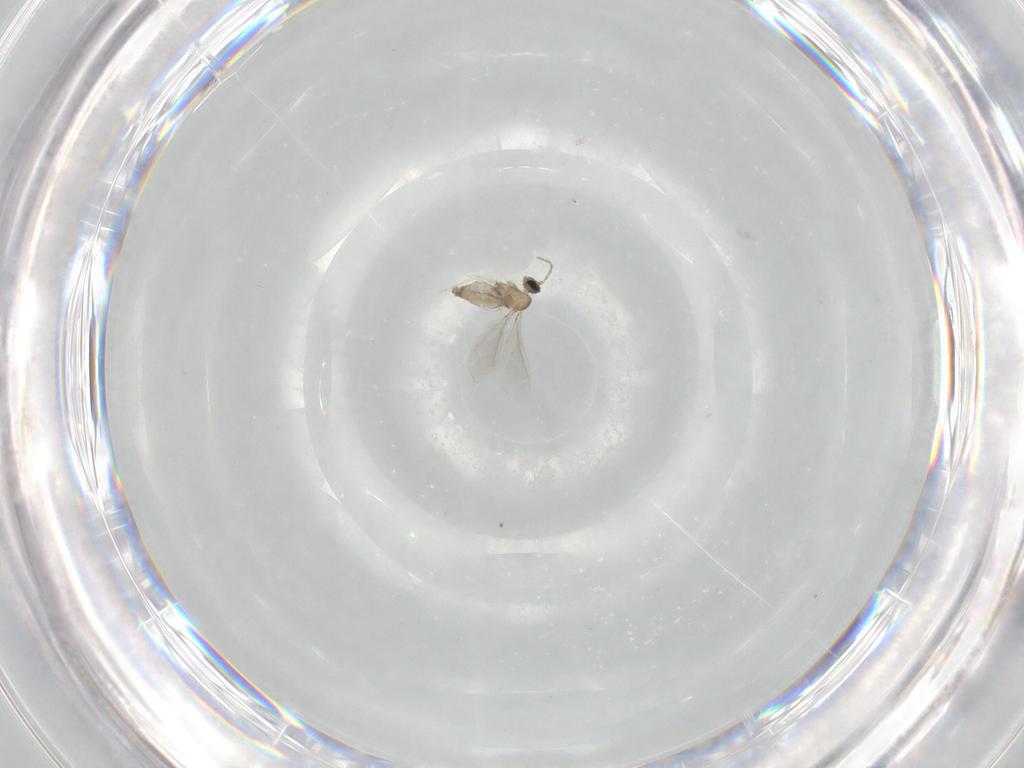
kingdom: Animalia
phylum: Arthropoda
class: Insecta
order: Diptera
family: Cecidomyiidae
